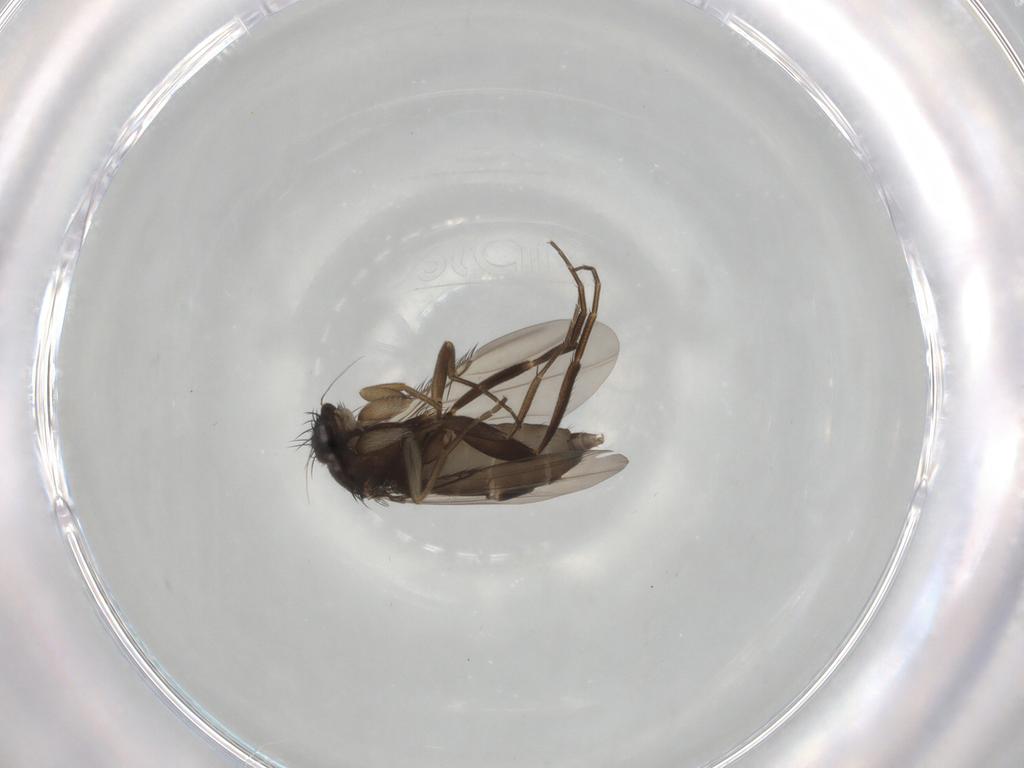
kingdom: Animalia
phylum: Arthropoda
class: Insecta
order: Diptera
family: Phoridae
